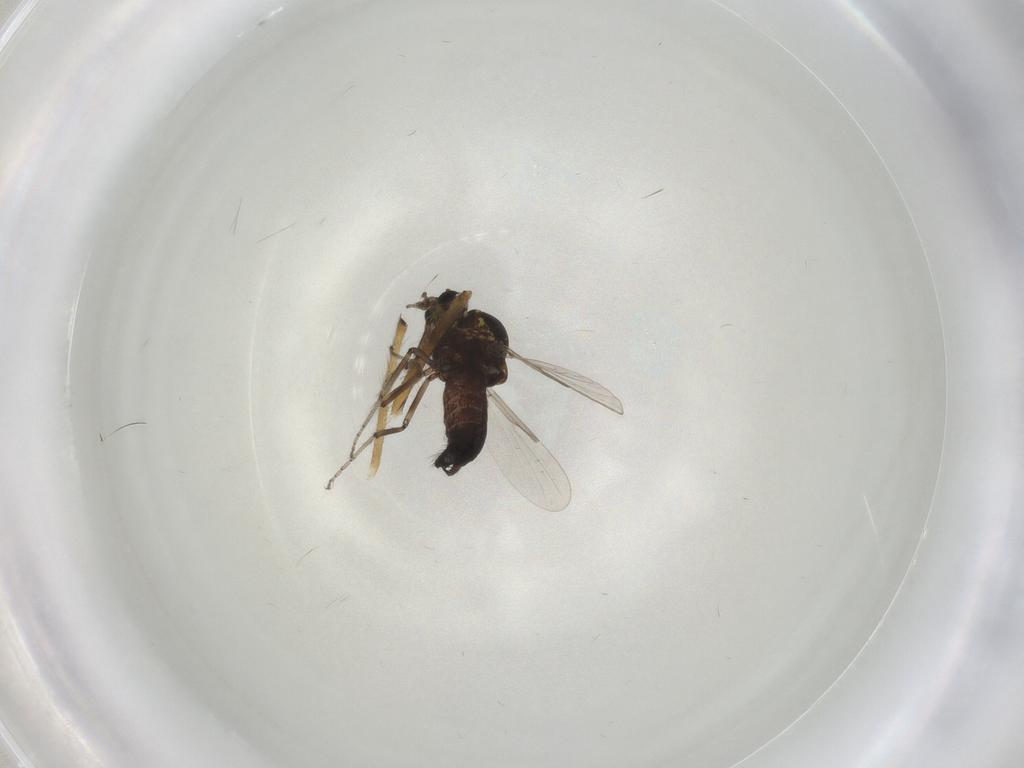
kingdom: Animalia
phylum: Arthropoda
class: Insecta
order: Diptera
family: Chironomidae
